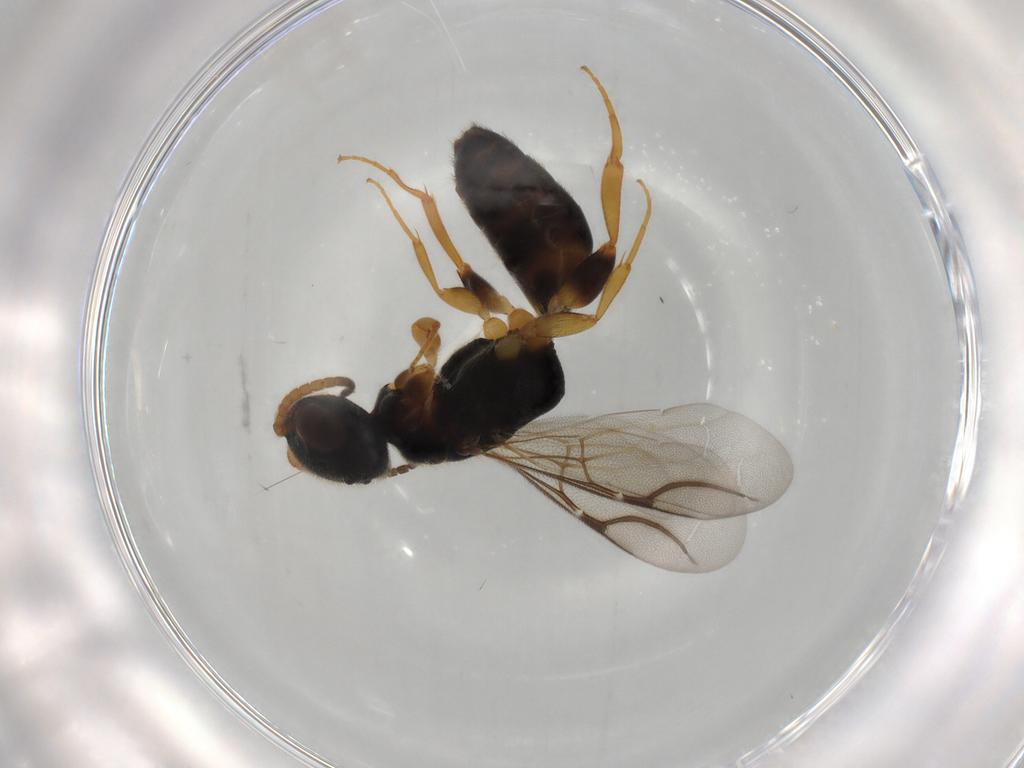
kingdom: Animalia
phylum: Arthropoda
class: Insecta
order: Hymenoptera
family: Bethylidae
